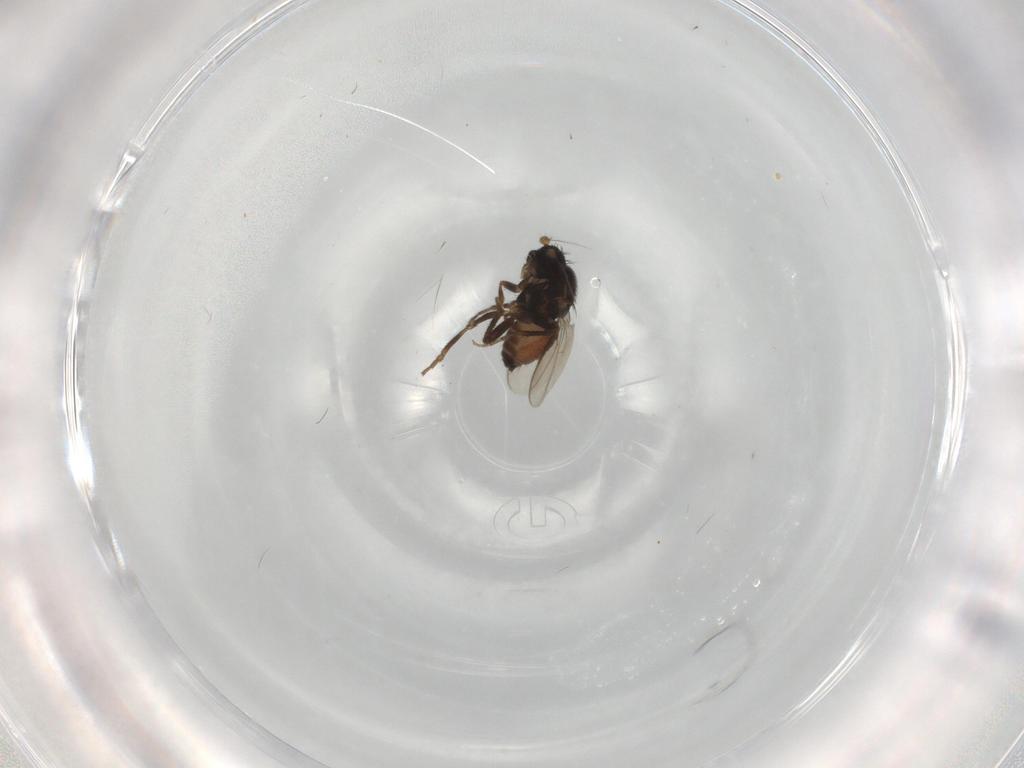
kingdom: Animalia
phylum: Arthropoda
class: Insecta
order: Diptera
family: Sphaeroceridae
